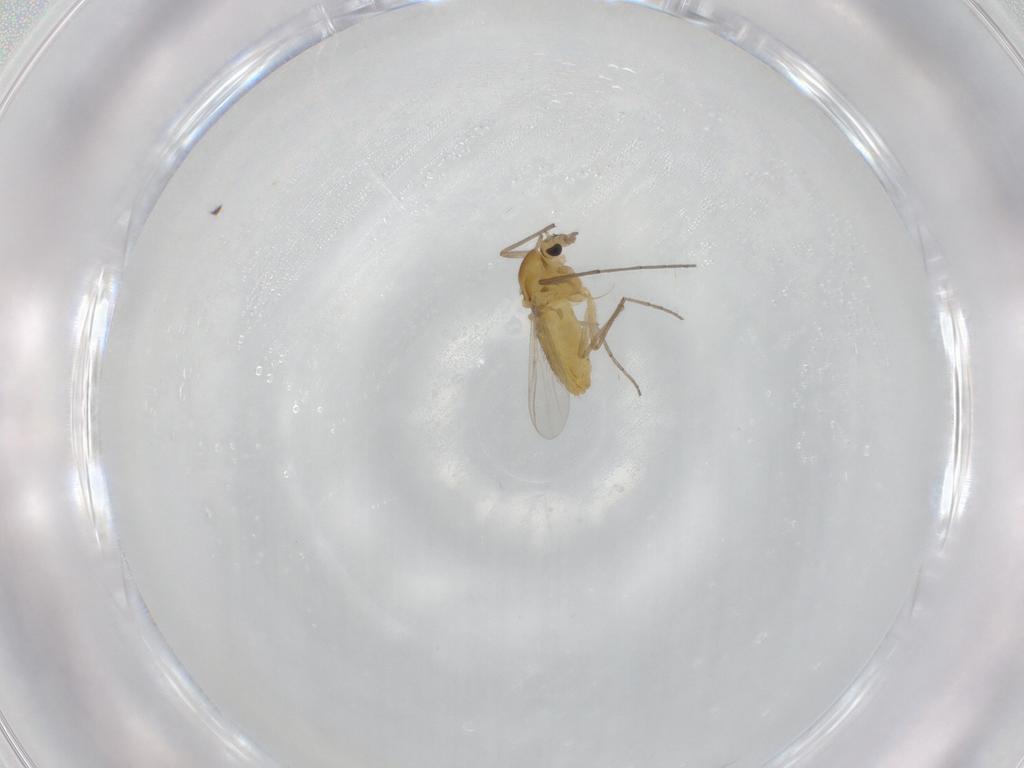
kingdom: Animalia
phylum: Arthropoda
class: Insecta
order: Diptera
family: Chironomidae
